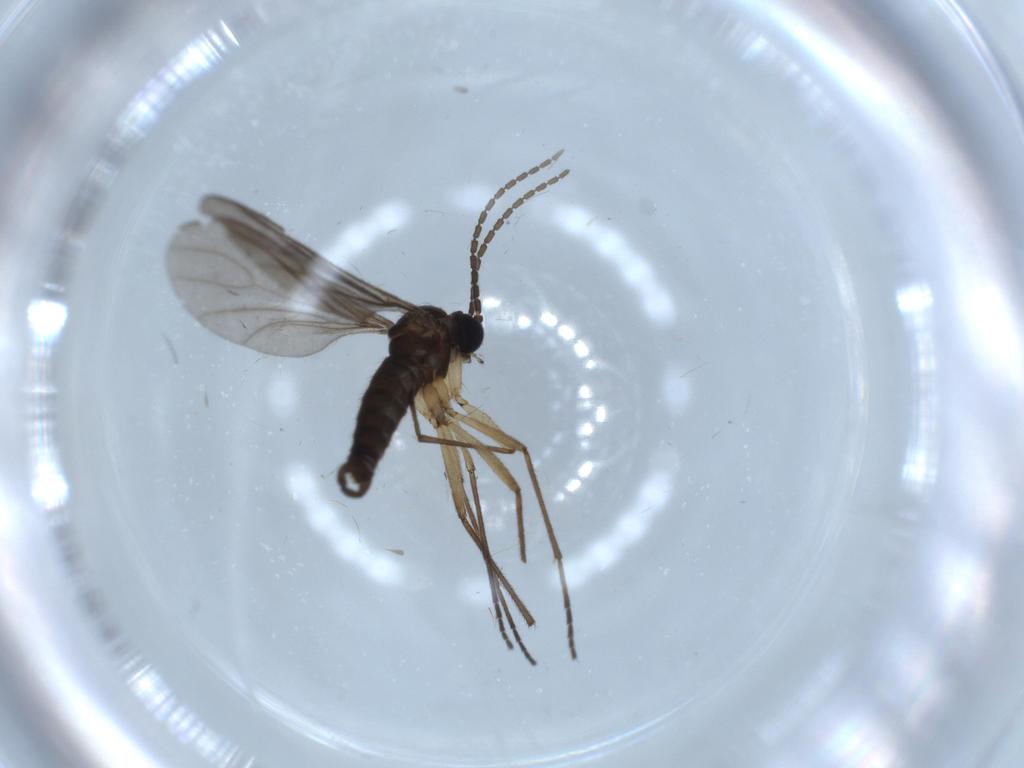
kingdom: Animalia
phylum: Arthropoda
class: Insecta
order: Diptera
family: Sciaridae
